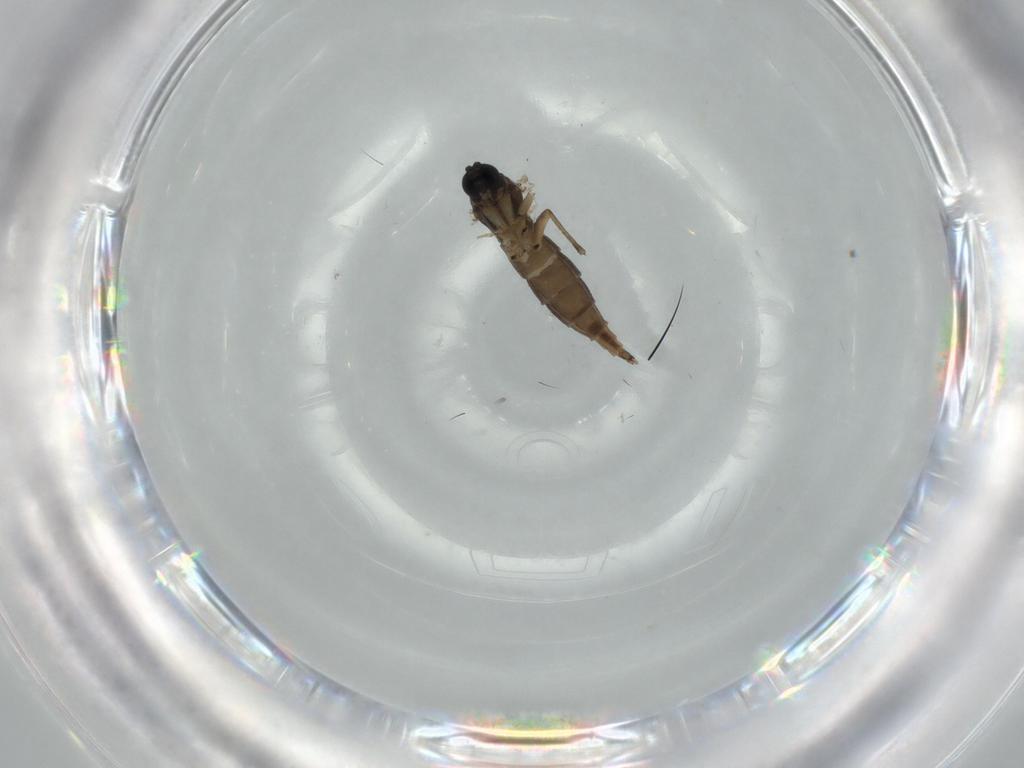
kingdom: Animalia
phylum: Arthropoda
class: Insecta
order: Diptera
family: Sciaridae
